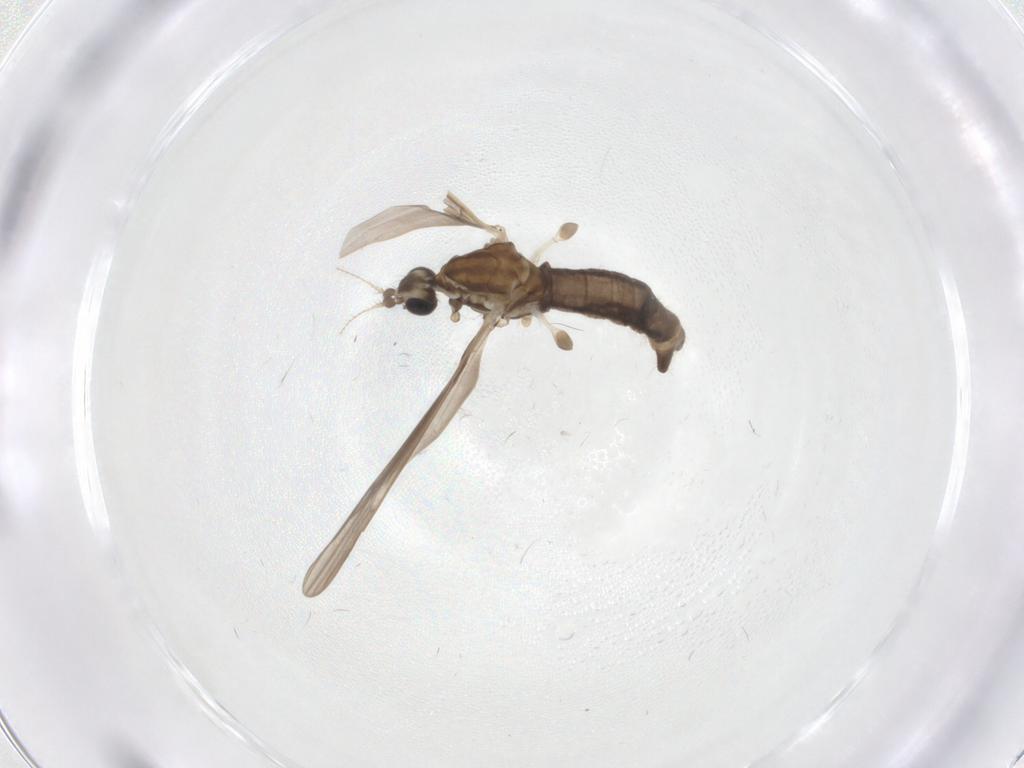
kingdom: Animalia
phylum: Arthropoda
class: Insecta
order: Diptera
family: Limoniidae
